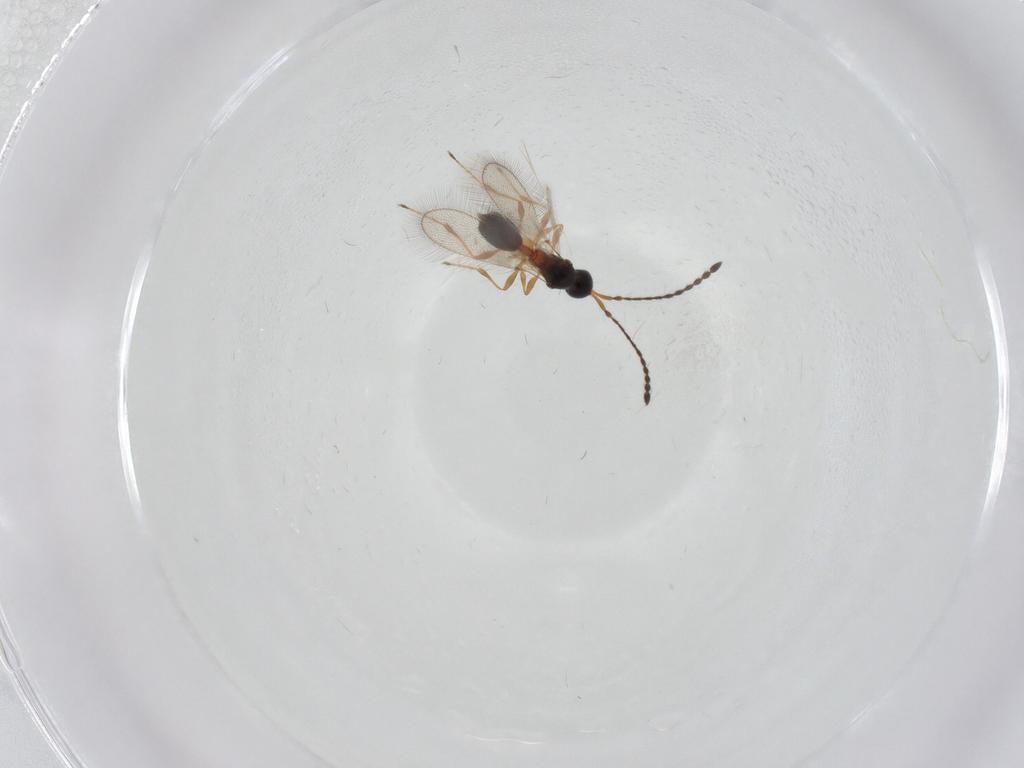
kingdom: Animalia
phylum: Arthropoda
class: Insecta
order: Hymenoptera
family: Diapriidae
